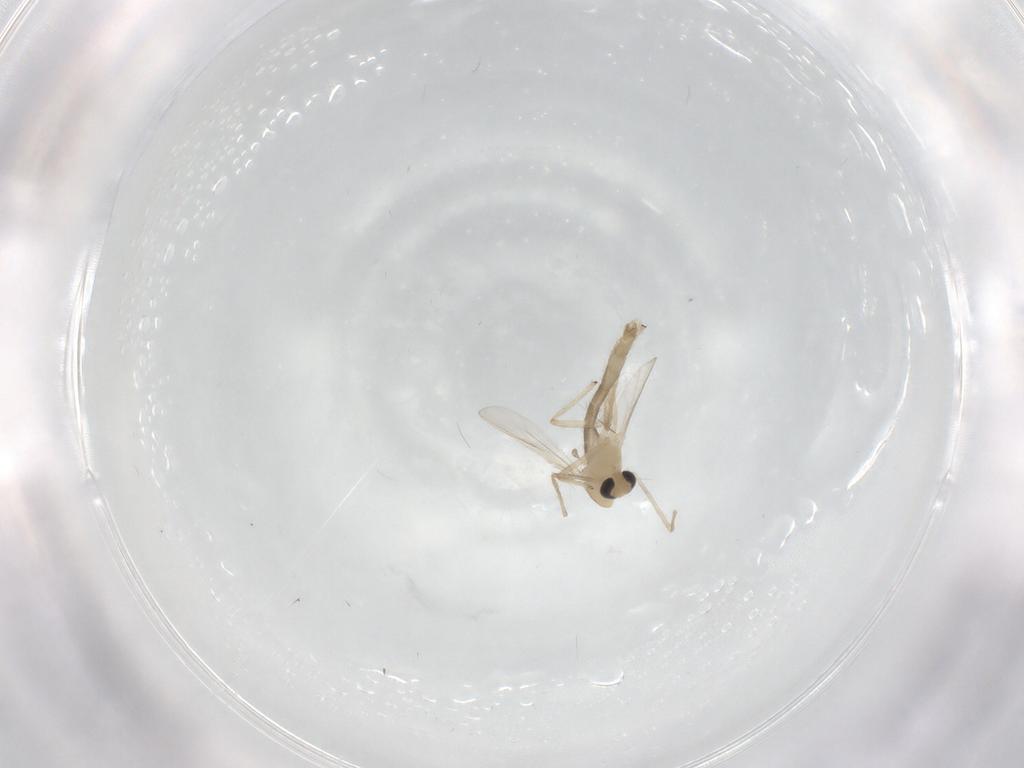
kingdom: Animalia
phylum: Arthropoda
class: Insecta
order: Diptera
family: Chironomidae
